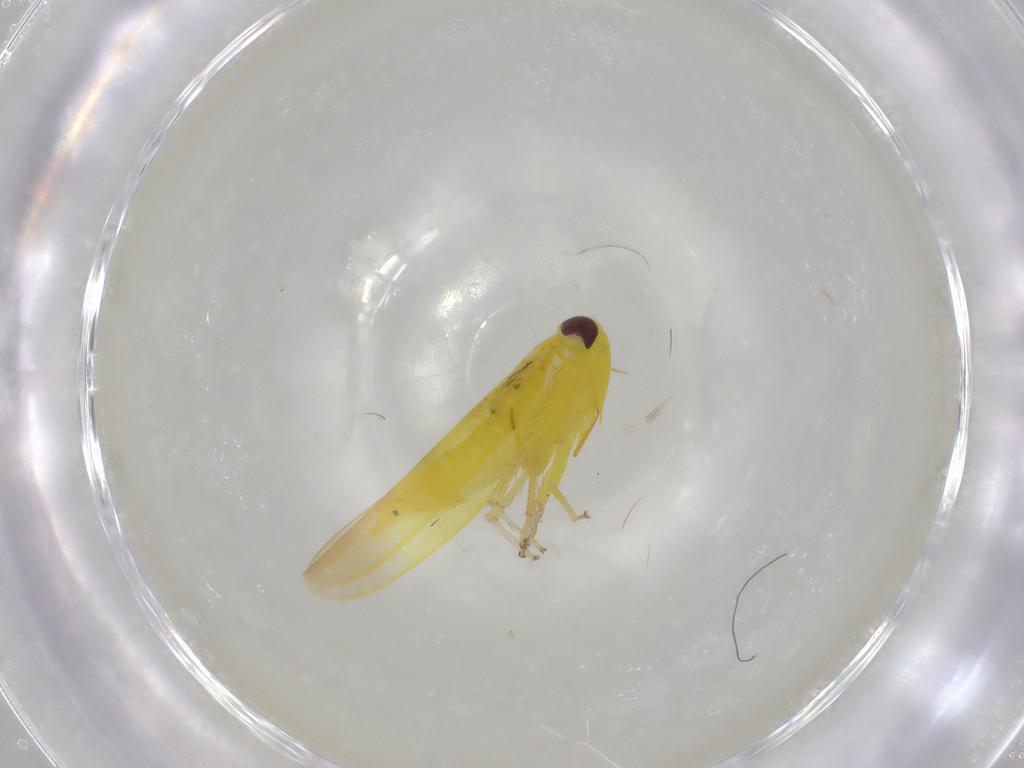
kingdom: Animalia
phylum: Arthropoda
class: Insecta
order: Hemiptera
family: Cicadellidae
